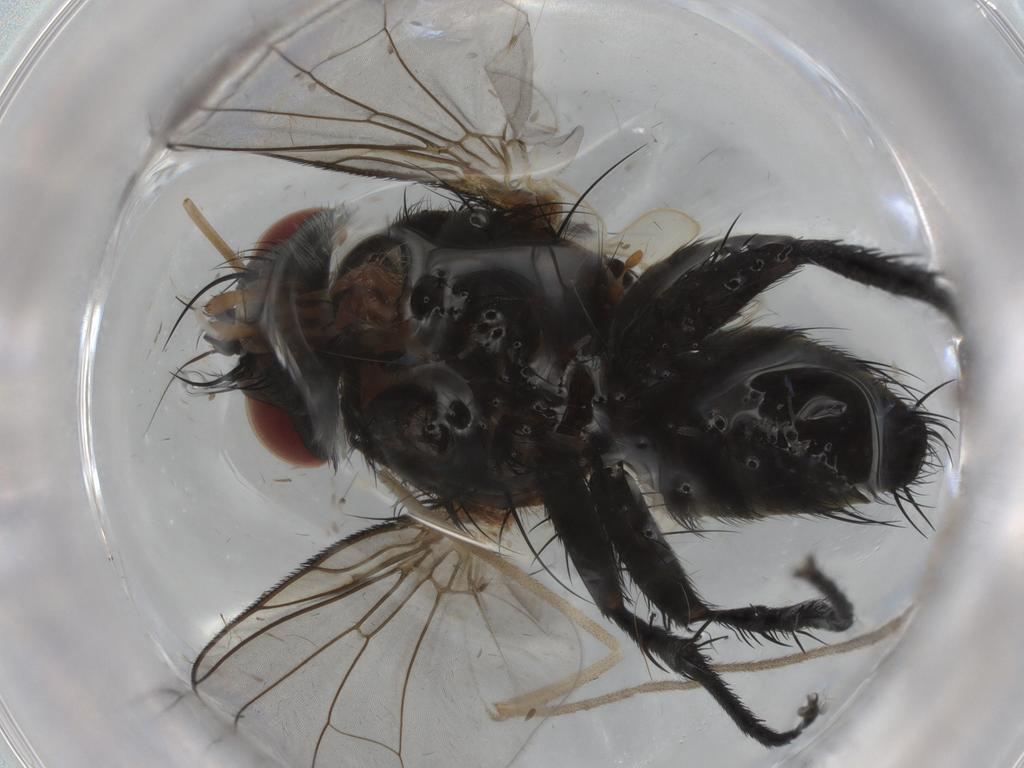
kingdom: Animalia
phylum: Arthropoda
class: Insecta
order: Diptera
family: Tachinidae
